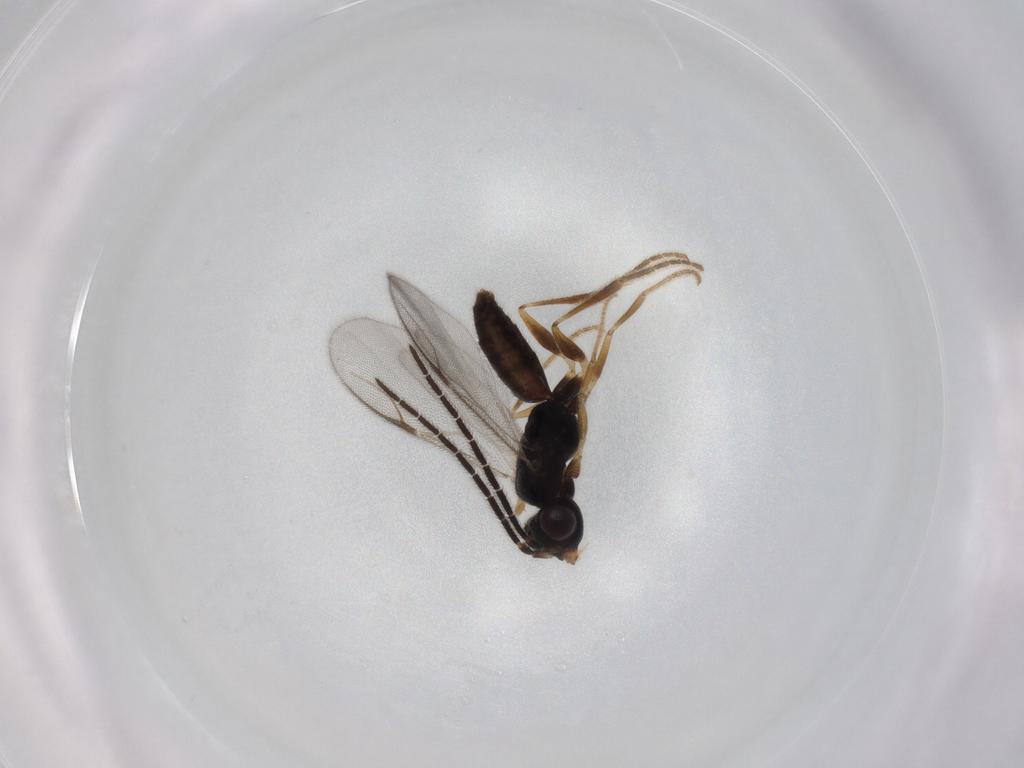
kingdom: Animalia
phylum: Arthropoda
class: Insecta
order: Hymenoptera
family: Dryinidae
